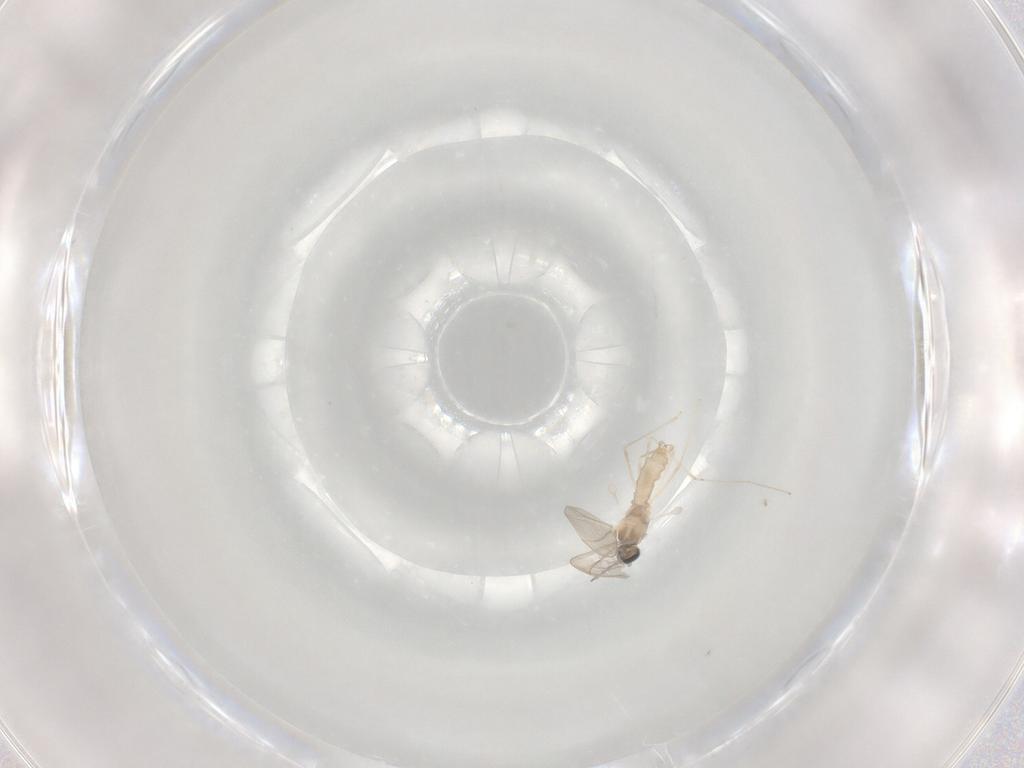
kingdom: Animalia
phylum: Arthropoda
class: Insecta
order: Diptera
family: Cecidomyiidae
